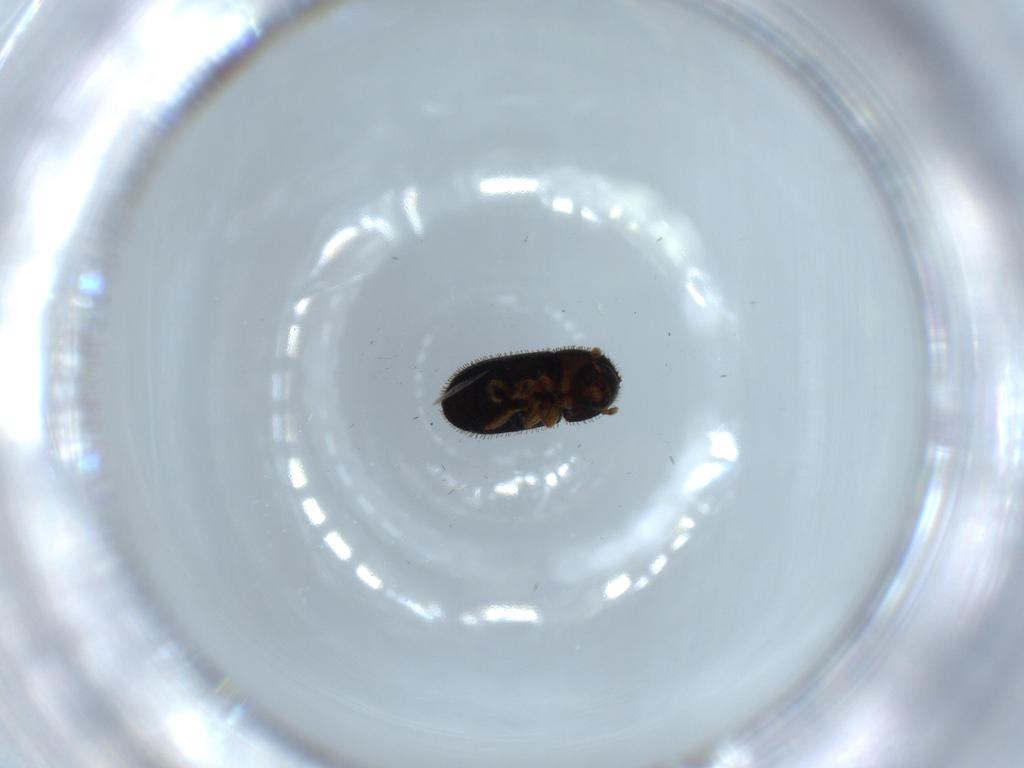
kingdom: Animalia
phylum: Arthropoda
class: Insecta
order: Coleoptera
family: Curculionidae
